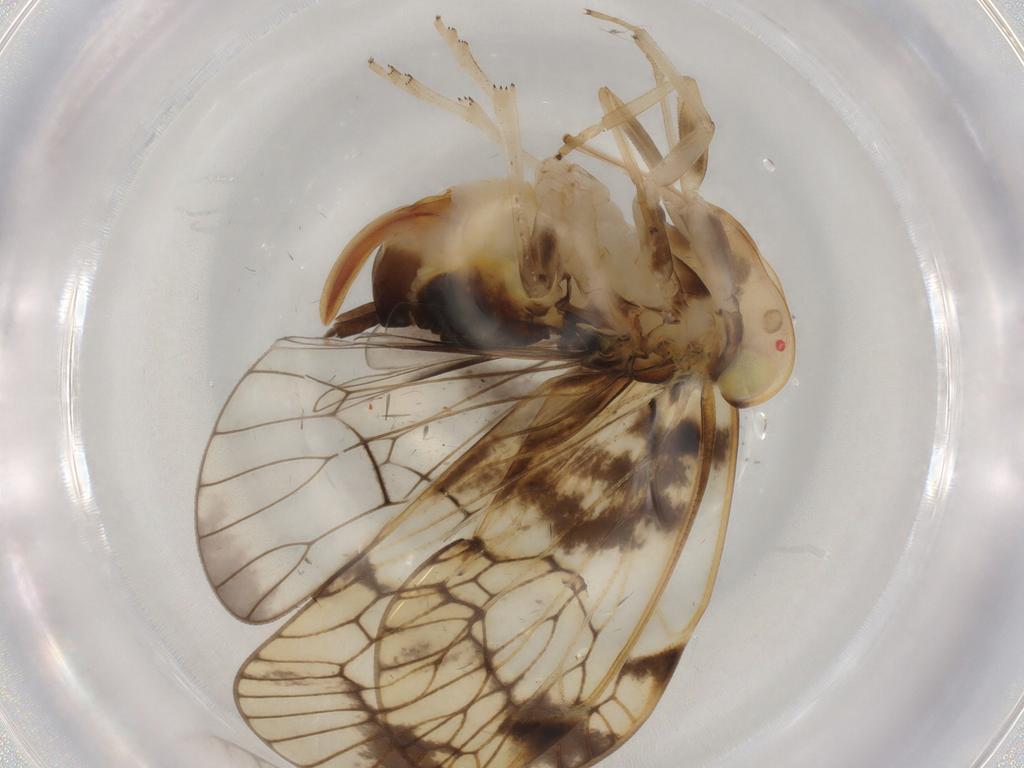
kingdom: Animalia
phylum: Arthropoda
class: Insecta
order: Hemiptera
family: Cixiidae
